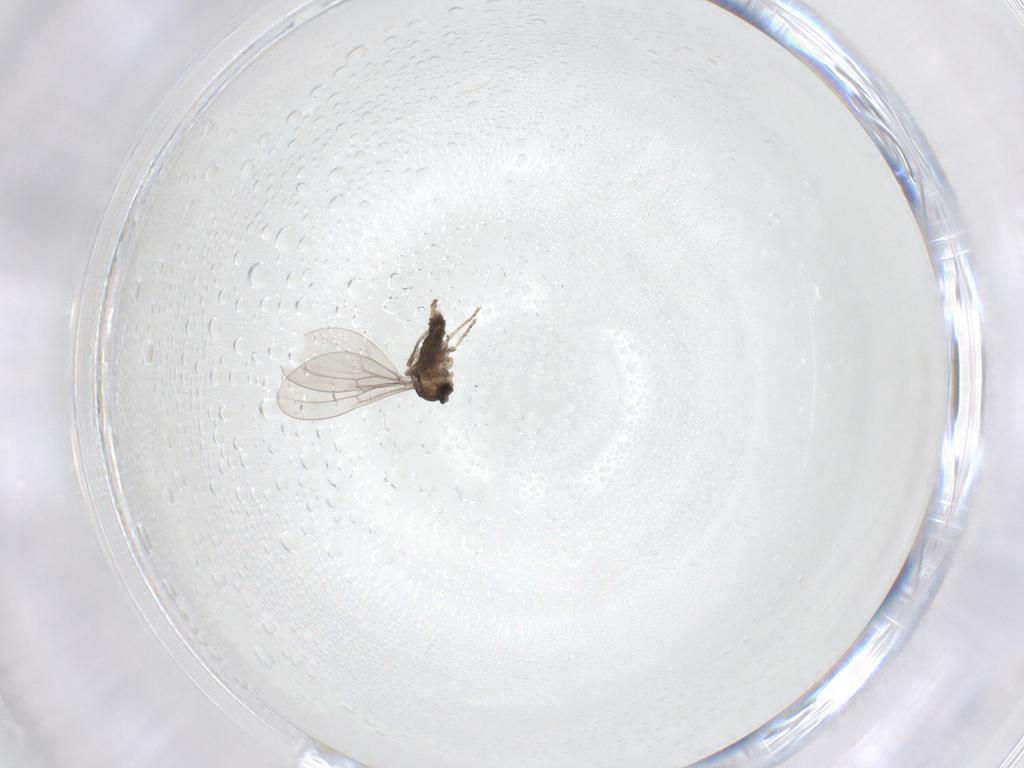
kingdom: Animalia
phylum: Arthropoda
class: Insecta
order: Diptera
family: Cecidomyiidae
